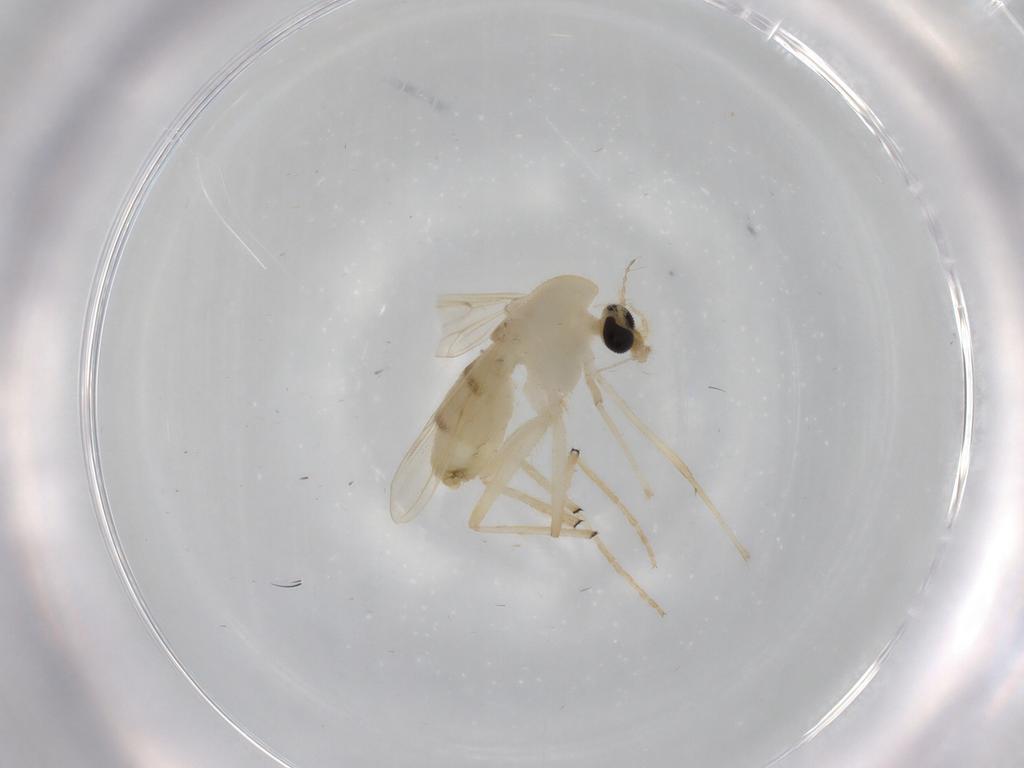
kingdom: Animalia
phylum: Arthropoda
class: Insecta
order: Diptera
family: Chironomidae
